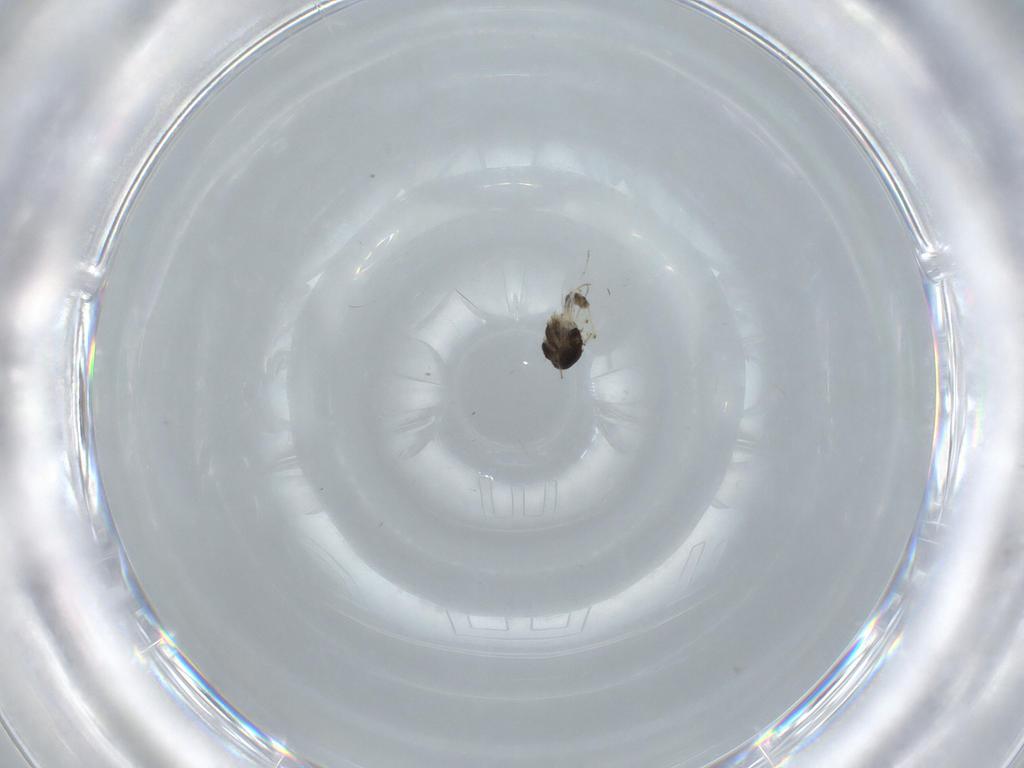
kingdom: Animalia
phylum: Arthropoda
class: Insecta
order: Diptera
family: Chironomidae
